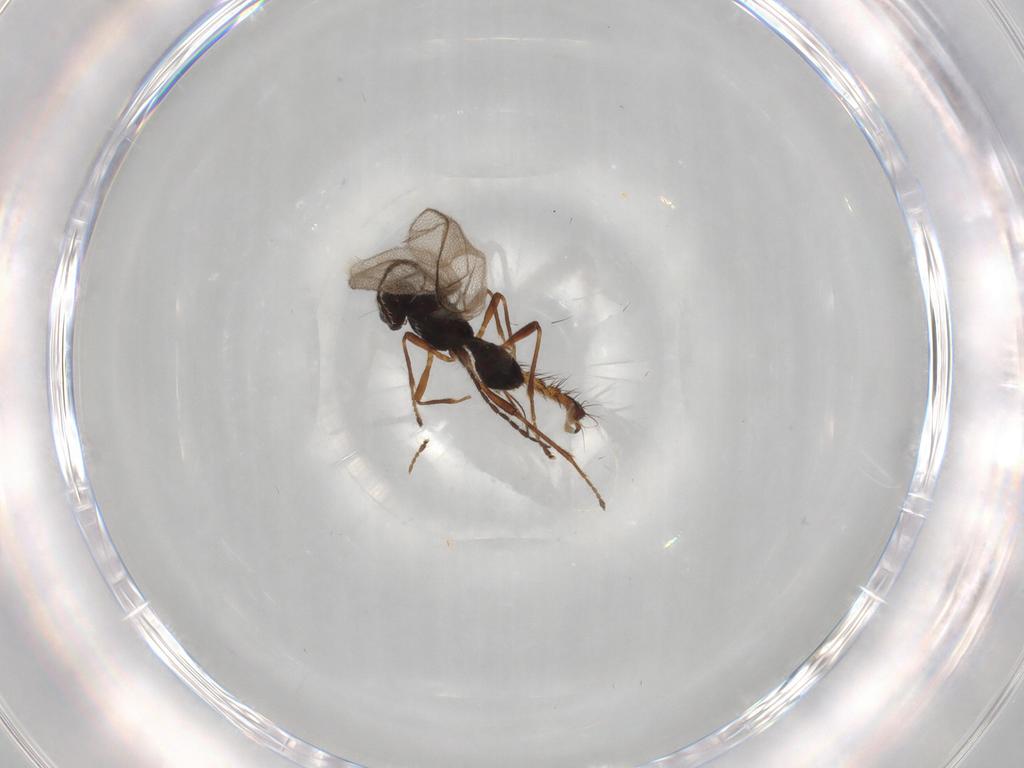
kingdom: Animalia
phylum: Arthropoda
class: Insecta
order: Hymenoptera
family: Braconidae
